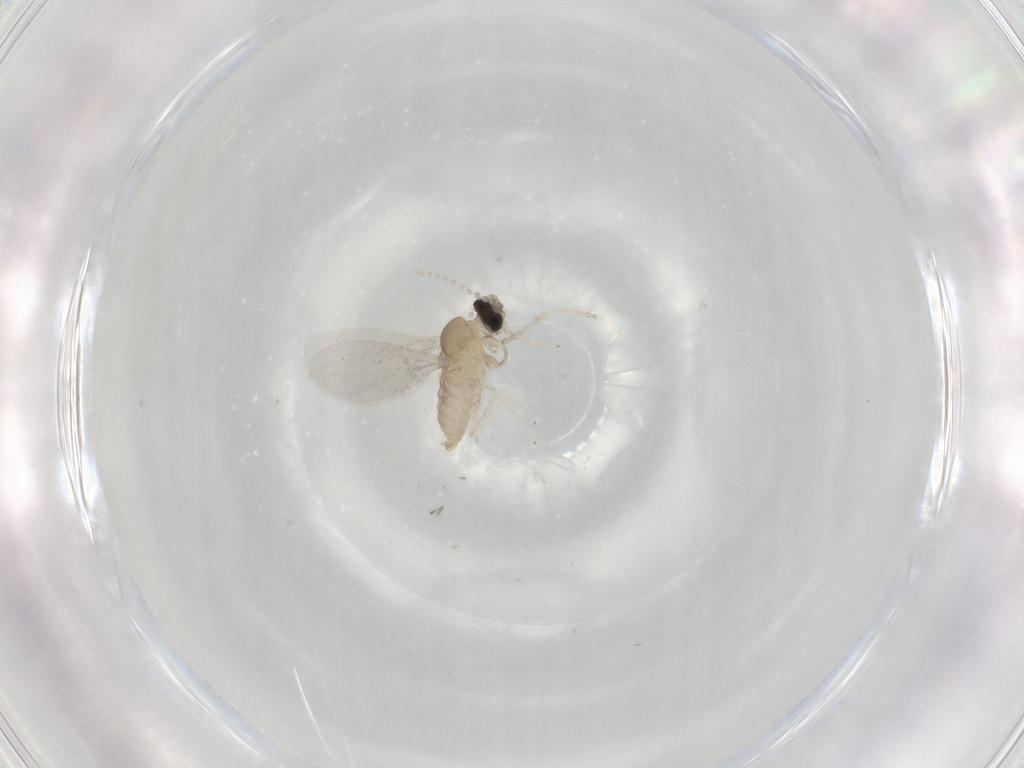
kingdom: Animalia
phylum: Arthropoda
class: Insecta
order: Diptera
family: Cecidomyiidae
